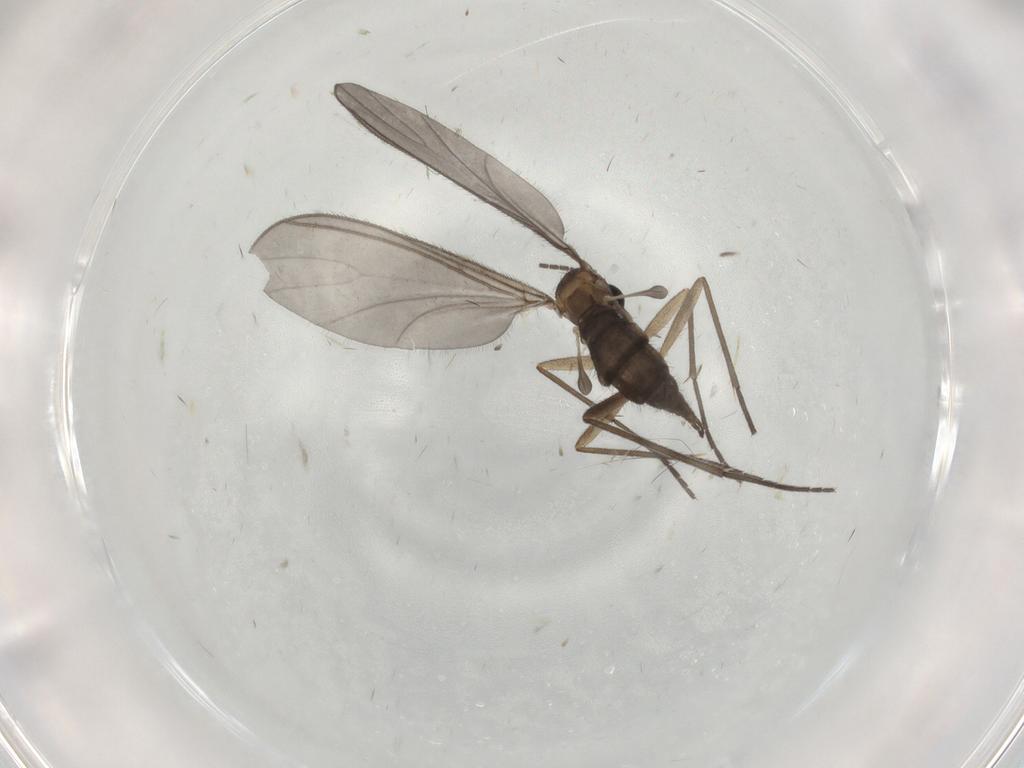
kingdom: Animalia
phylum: Arthropoda
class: Insecta
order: Diptera
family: Sciaridae
